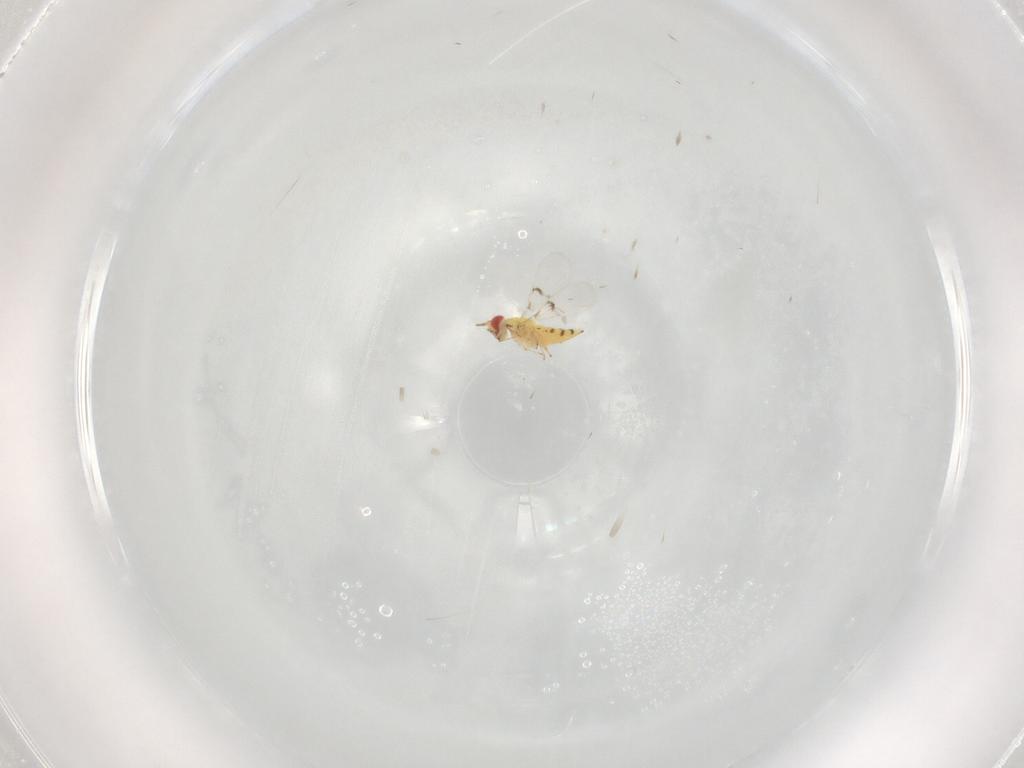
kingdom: Animalia
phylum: Arthropoda
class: Insecta
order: Hymenoptera
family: Trichogrammatidae
